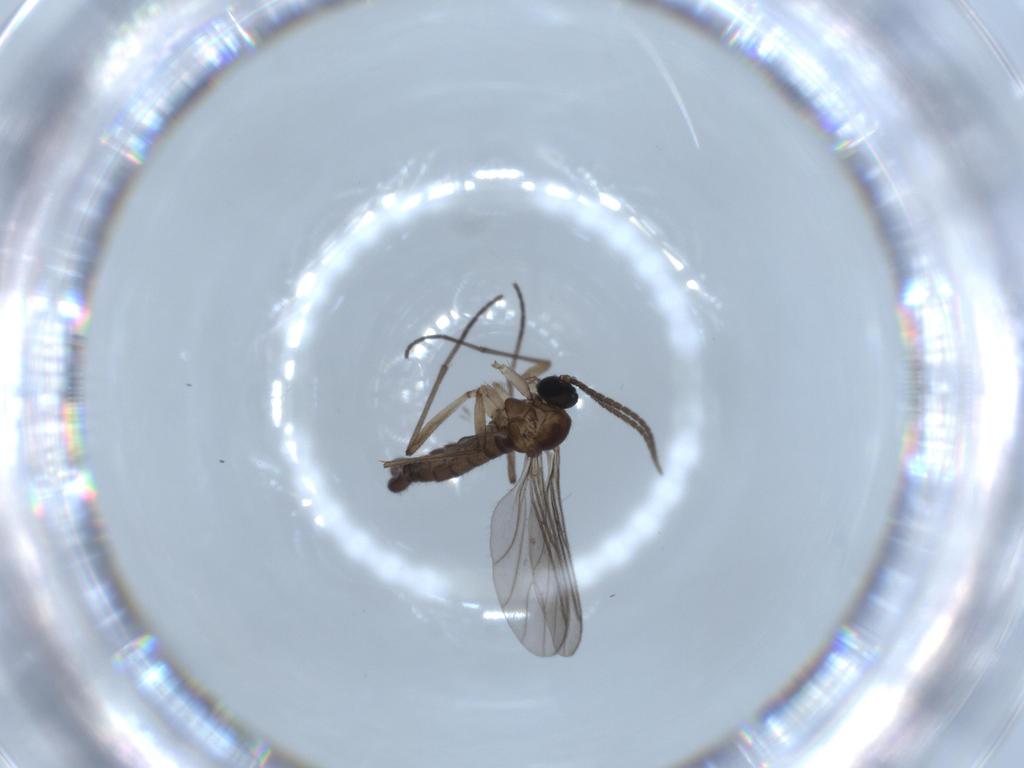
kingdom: Animalia
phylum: Arthropoda
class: Insecta
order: Diptera
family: Sciaridae
